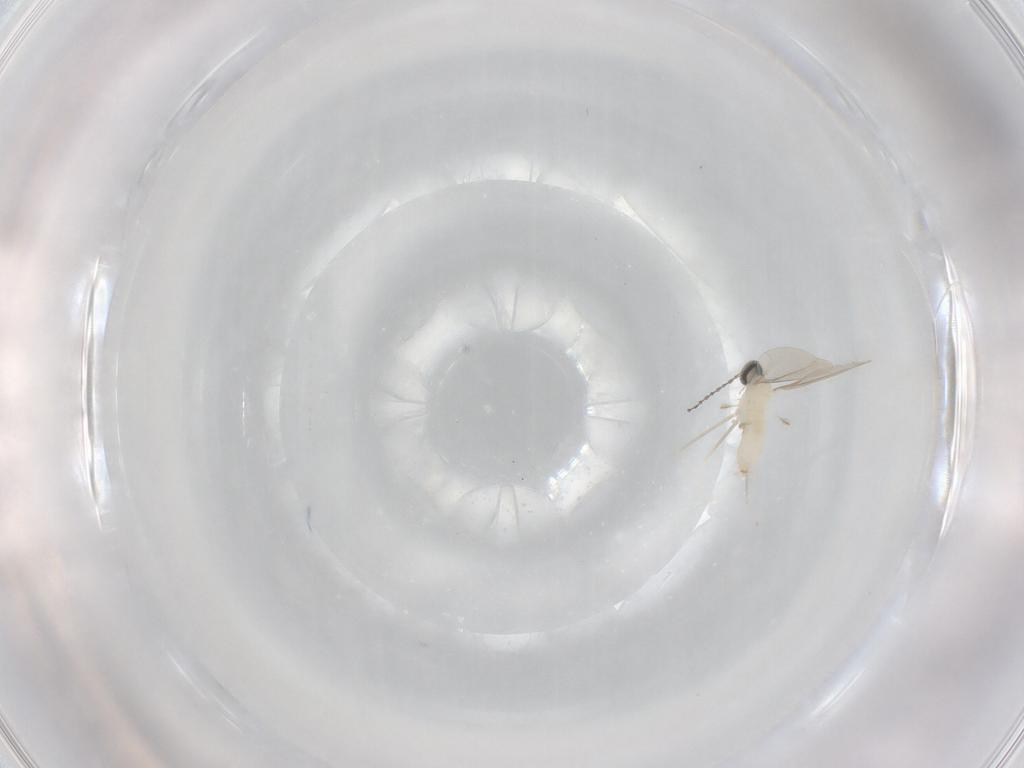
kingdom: Animalia
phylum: Arthropoda
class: Insecta
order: Diptera
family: Cecidomyiidae
